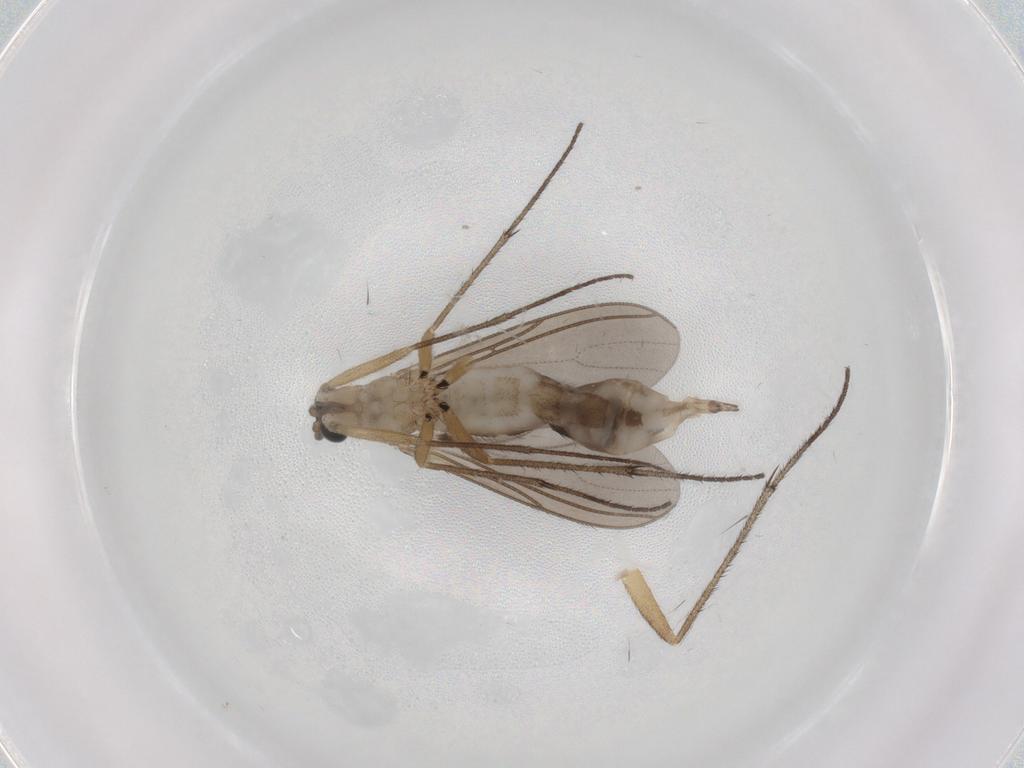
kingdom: Animalia
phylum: Arthropoda
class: Insecta
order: Diptera
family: Sciaridae
